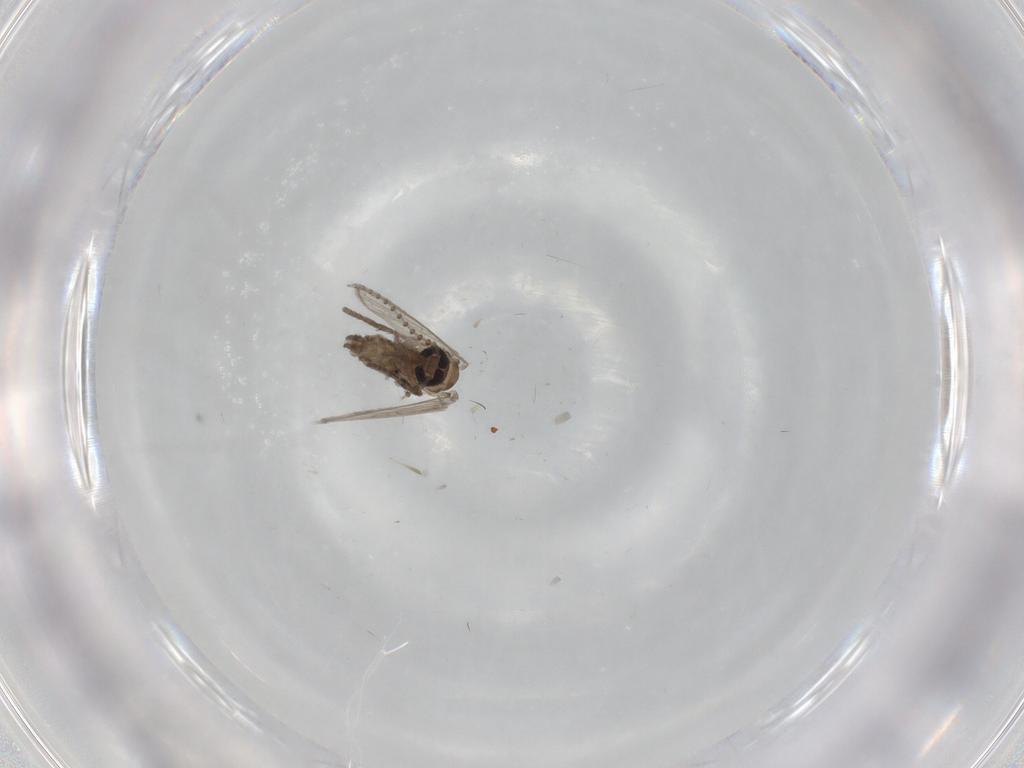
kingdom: Animalia
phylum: Arthropoda
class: Insecta
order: Diptera
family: Psychodidae
